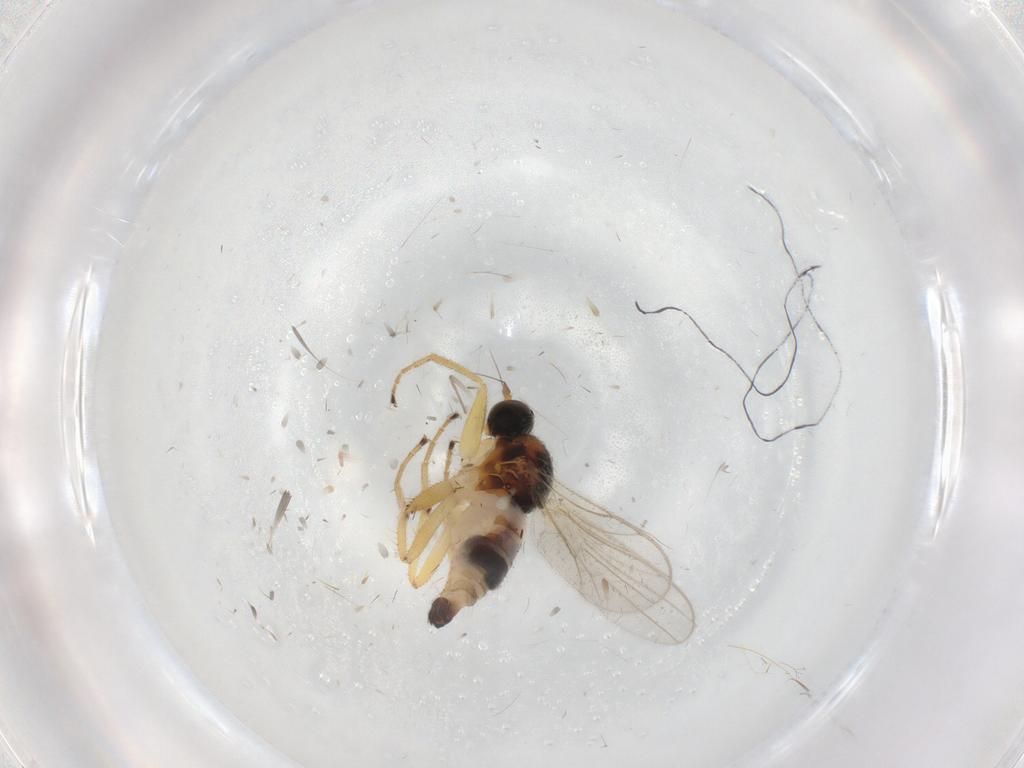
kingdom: Animalia
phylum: Arthropoda
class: Insecta
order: Diptera
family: Hybotidae
